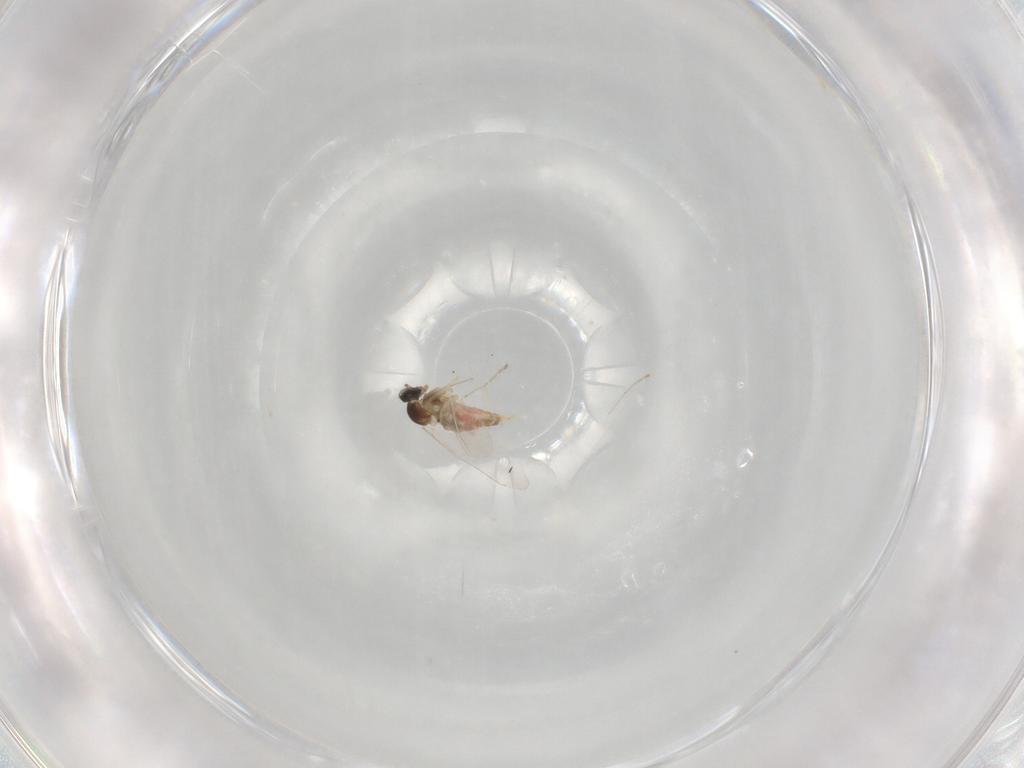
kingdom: Animalia
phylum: Arthropoda
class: Insecta
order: Diptera
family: Cecidomyiidae
